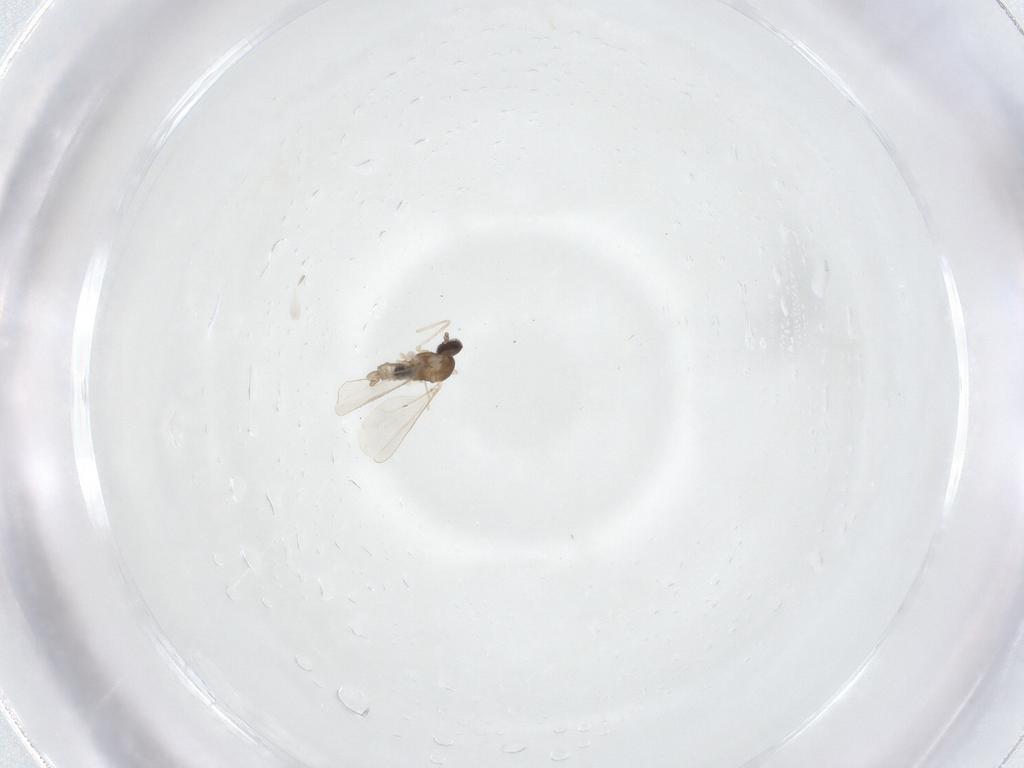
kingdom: Animalia
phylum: Arthropoda
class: Insecta
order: Diptera
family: Cecidomyiidae
